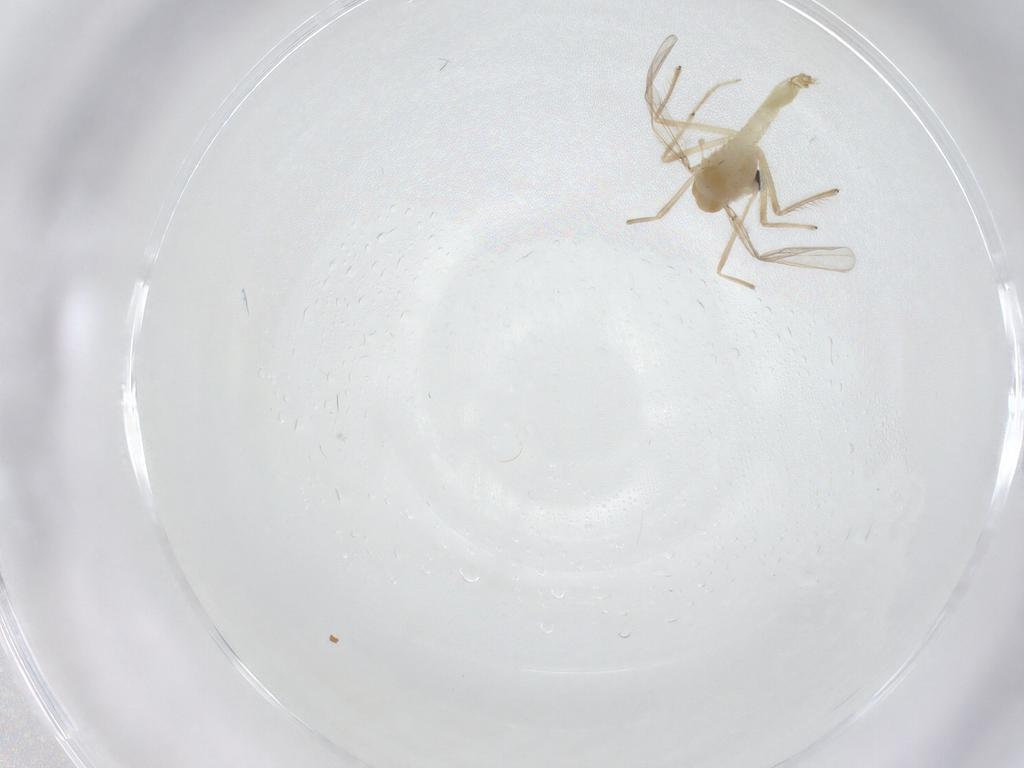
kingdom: Animalia
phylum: Arthropoda
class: Insecta
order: Diptera
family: Chironomidae
